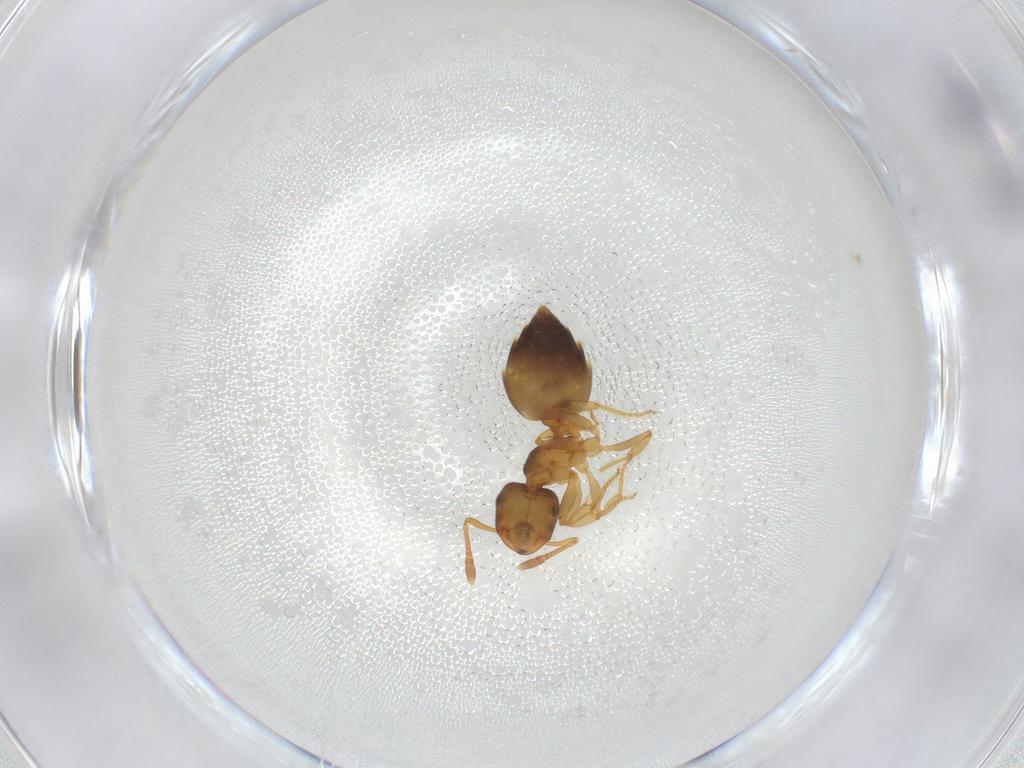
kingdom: Animalia
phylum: Arthropoda
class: Insecta
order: Hymenoptera
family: Formicidae
